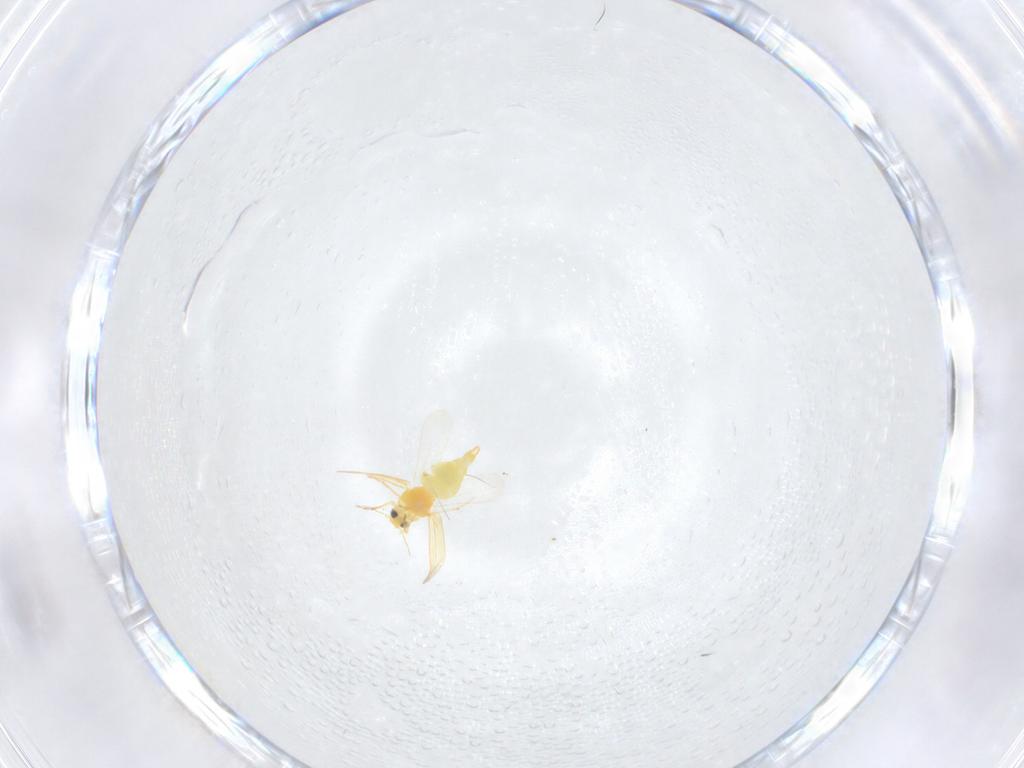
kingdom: Animalia
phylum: Arthropoda
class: Insecta
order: Hemiptera
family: Cicadellidae
